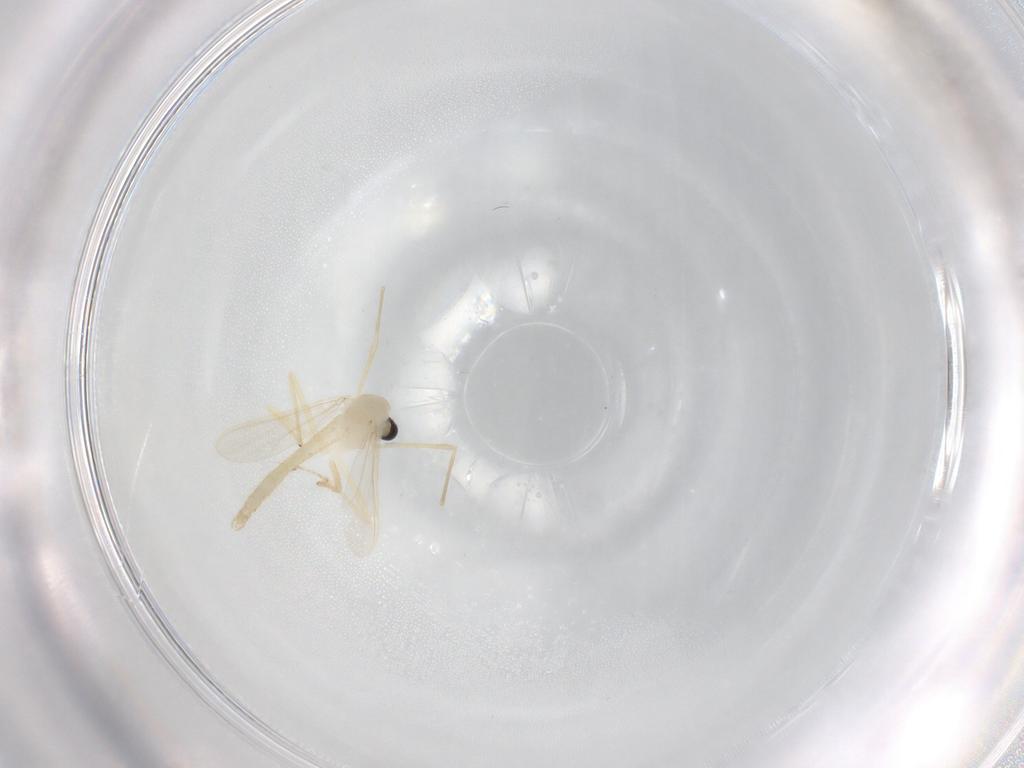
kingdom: Animalia
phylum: Arthropoda
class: Insecta
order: Diptera
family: Chironomidae
